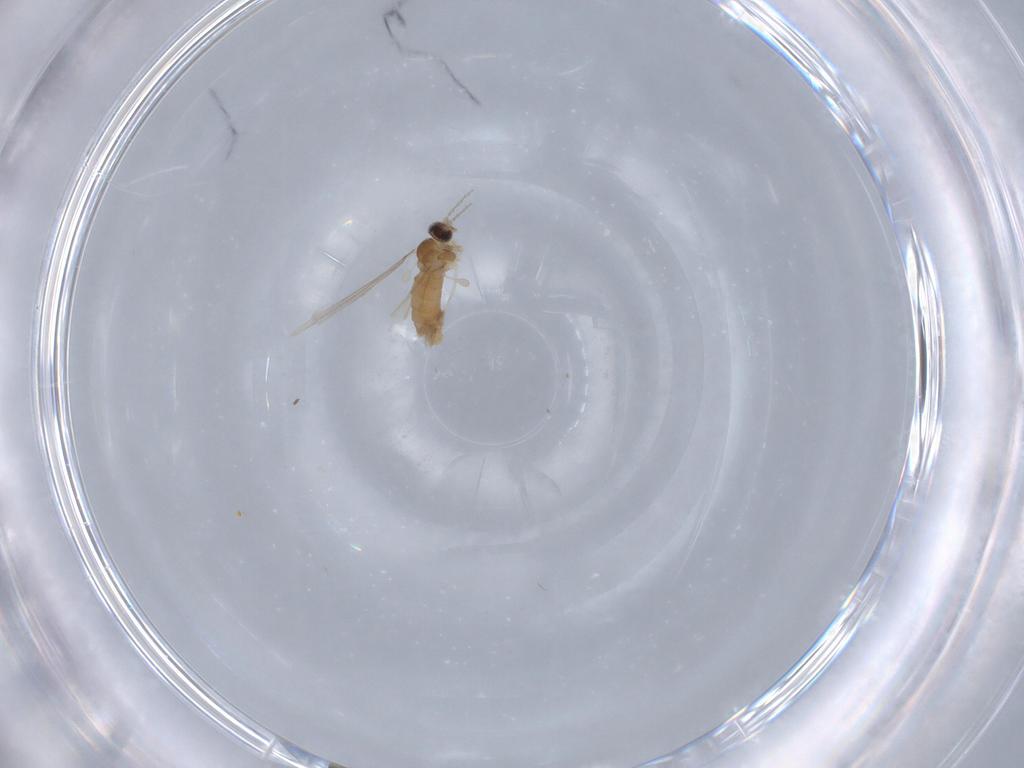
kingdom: Animalia
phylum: Arthropoda
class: Insecta
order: Diptera
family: Cecidomyiidae
